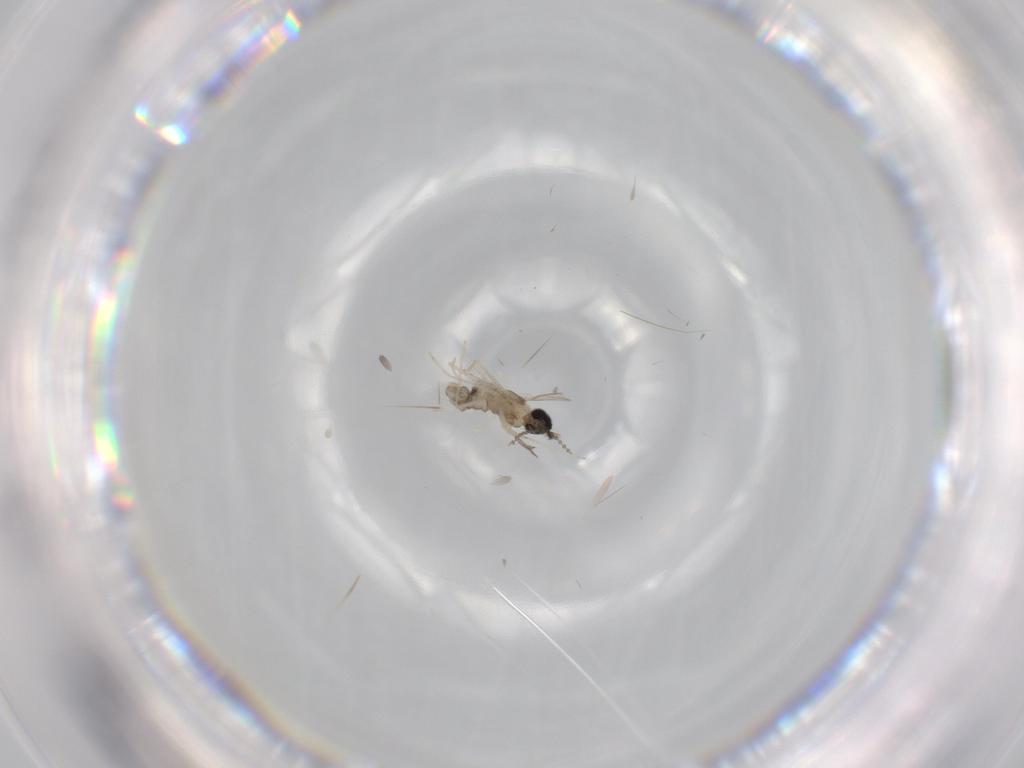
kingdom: Animalia
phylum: Arthropoda
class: Insecta
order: Diptera
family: Cecidomyiidae
